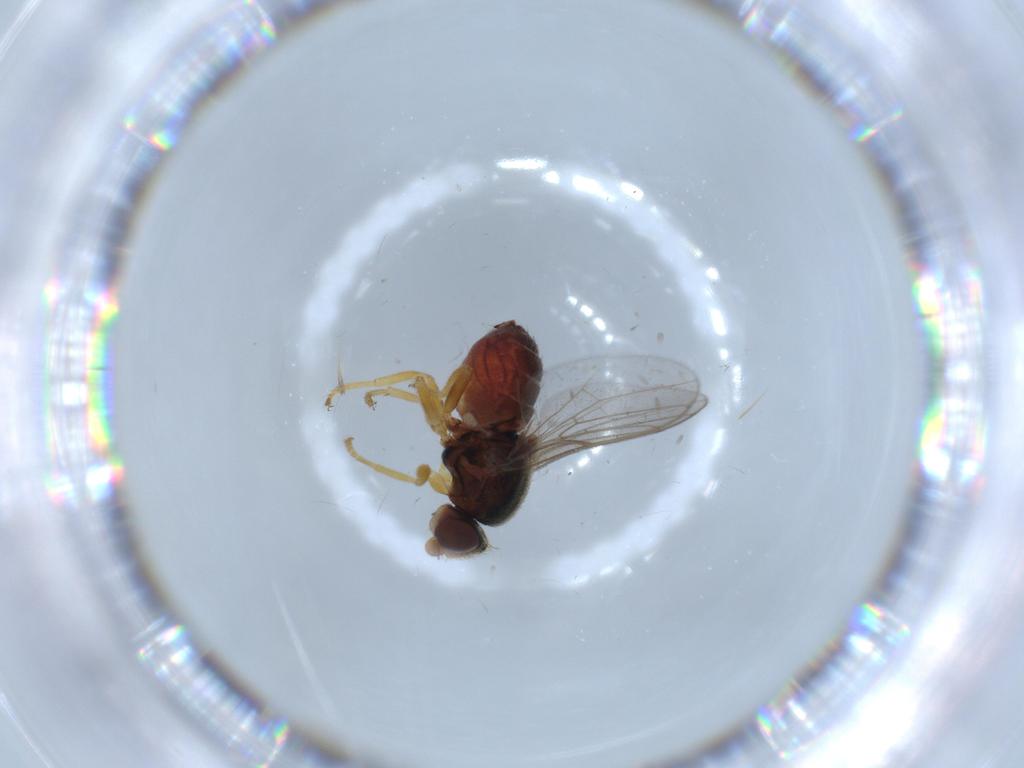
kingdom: Animalia
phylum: Arthropoda
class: Insecta
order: Diptera
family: Chloropidae
